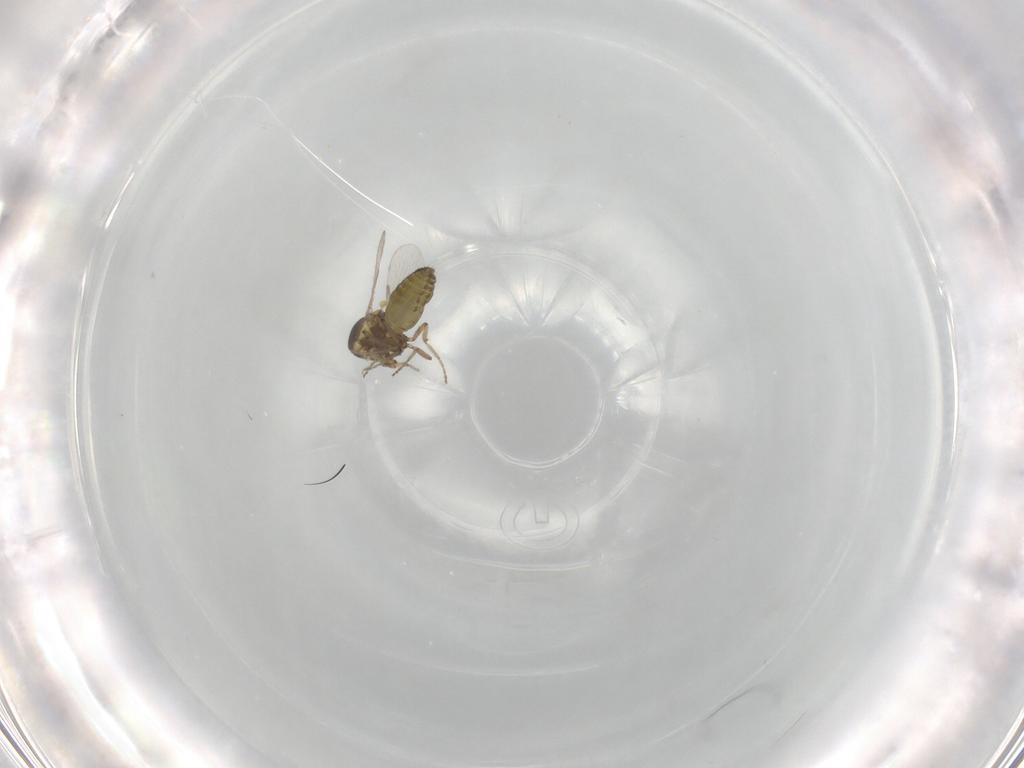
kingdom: Animalia
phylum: Arthropoda
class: Insecta
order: Diptera
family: Ceratopogonidae
